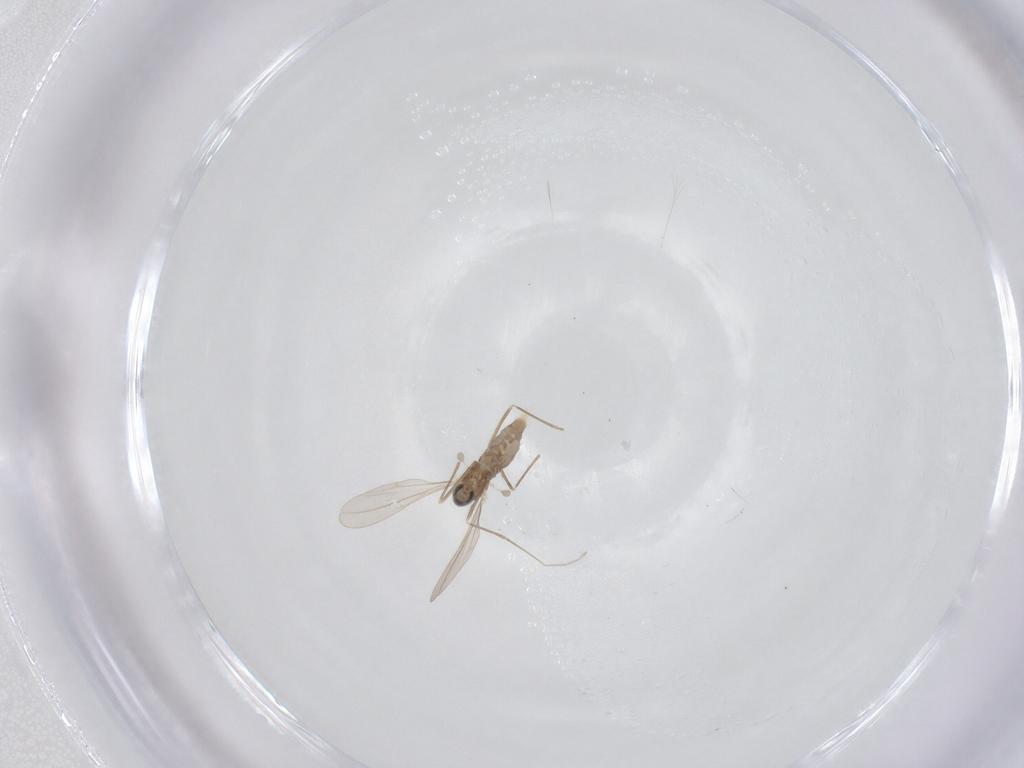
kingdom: Animalia
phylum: Arthropoda
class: Insecta
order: Diptera
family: Chironomidae
